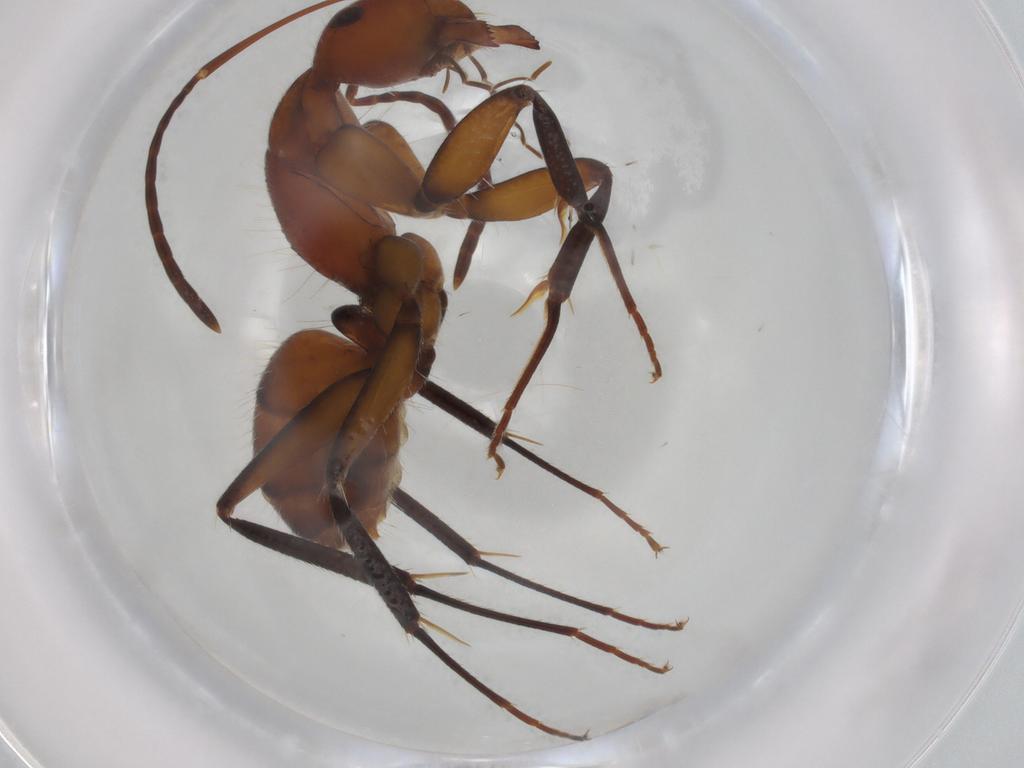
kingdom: Animalia
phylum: Arthropoda
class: Insecta
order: Hymenoptera
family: Formicidae
